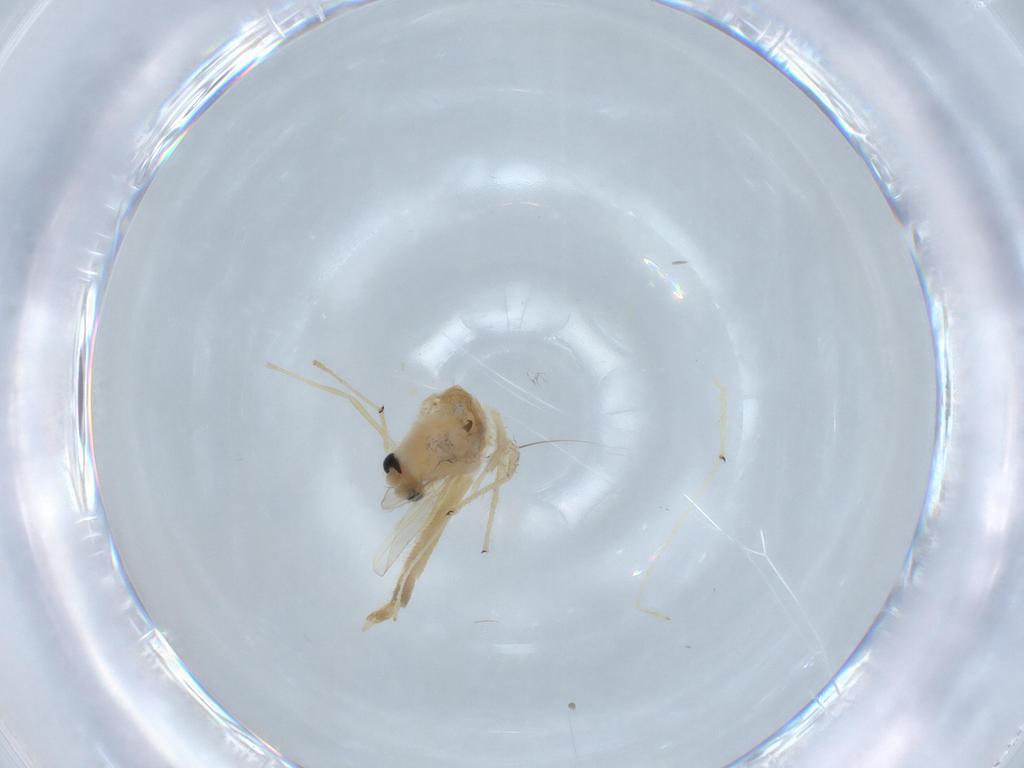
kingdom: Animalia
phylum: Arthropoda
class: Insecta
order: Diptera
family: Chironomidae
